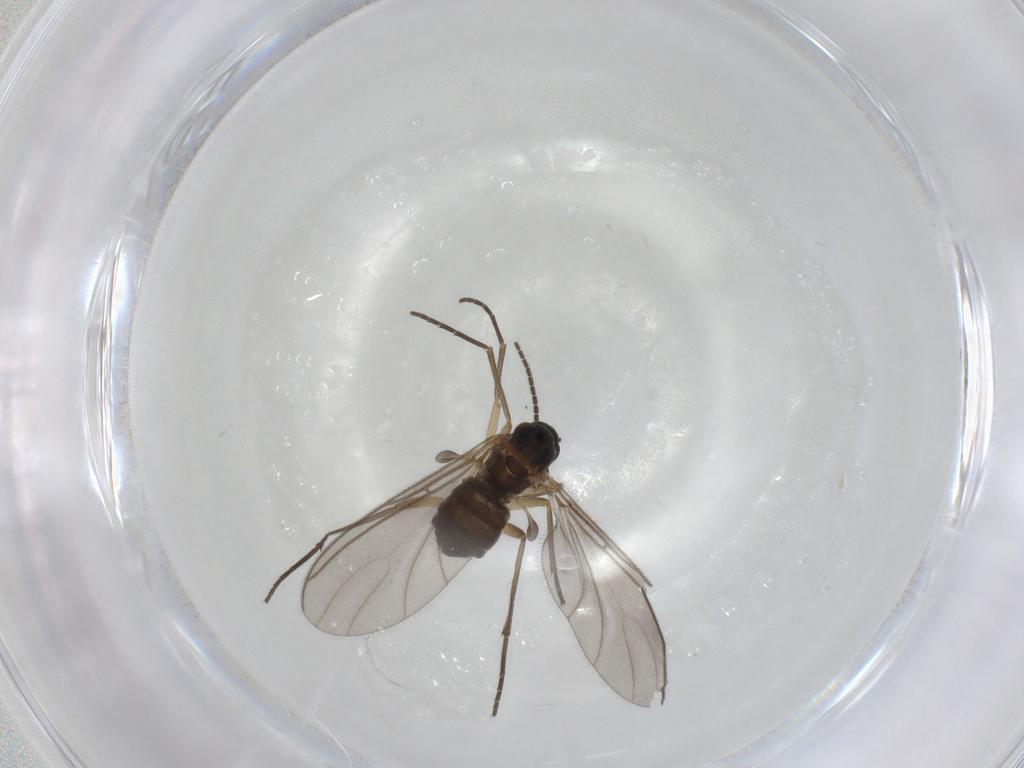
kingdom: Animalia
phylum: Arthropoda
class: Insecta
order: Diptera
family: Sciaridae
